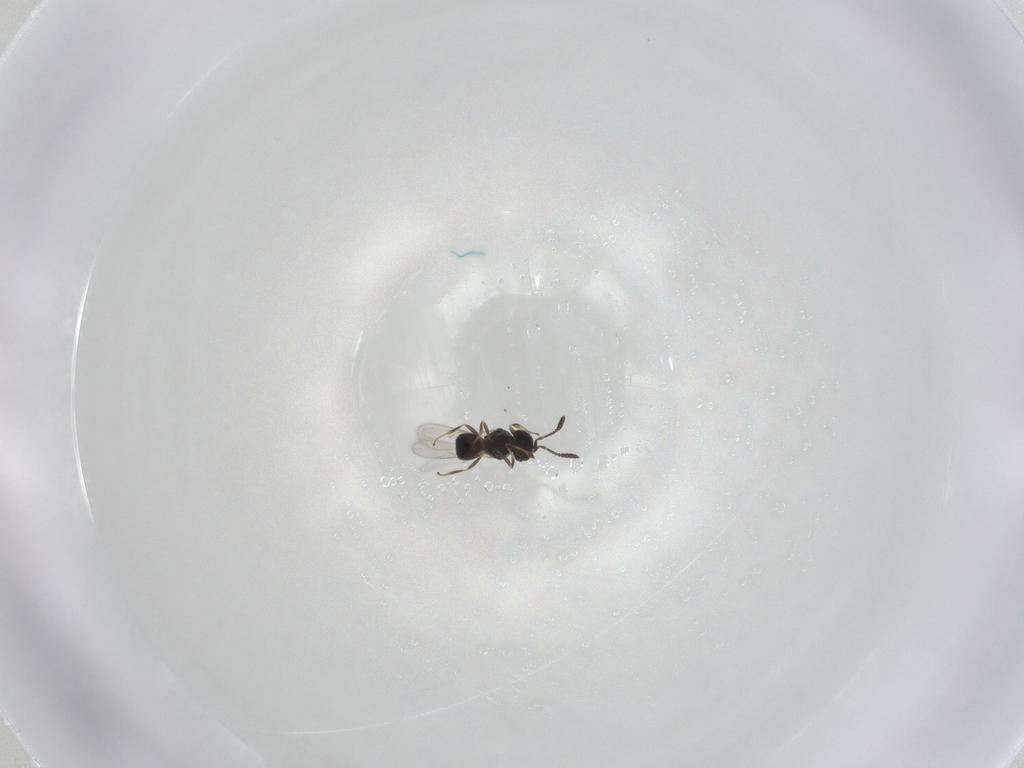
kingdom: Animalia
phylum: Arthropoda
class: Insecta
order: Hymenoptera
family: Scelionidae
